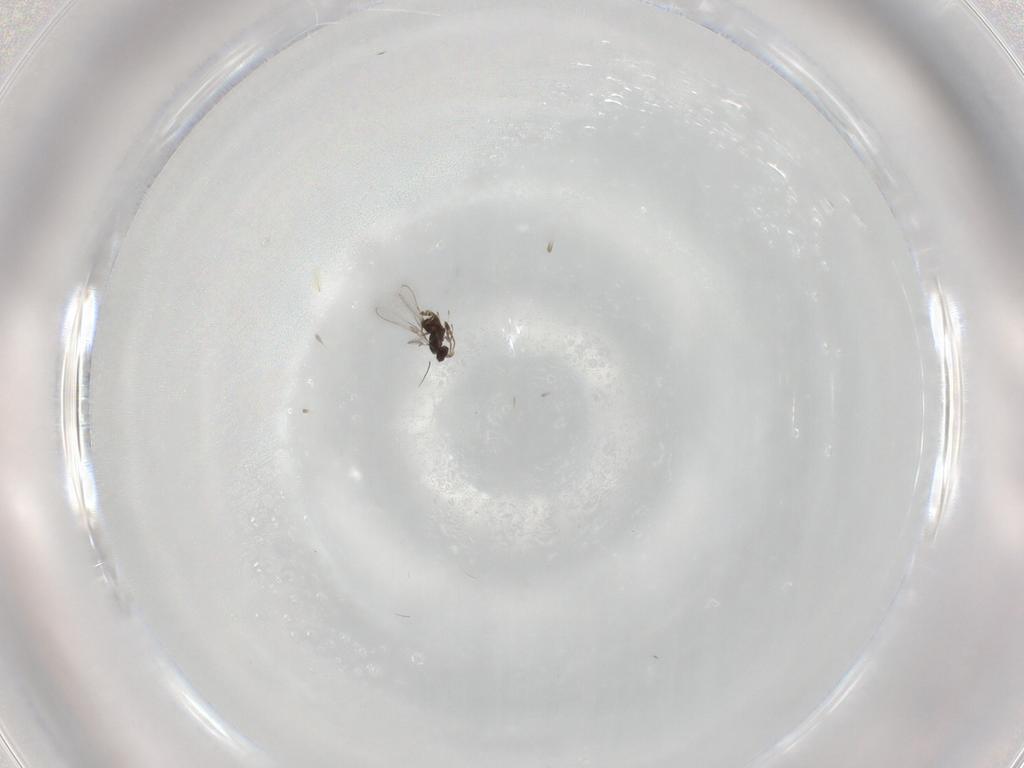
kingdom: Animalia
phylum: Arthropoda
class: Insecta
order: Hymenoptera
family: Mymaridae
